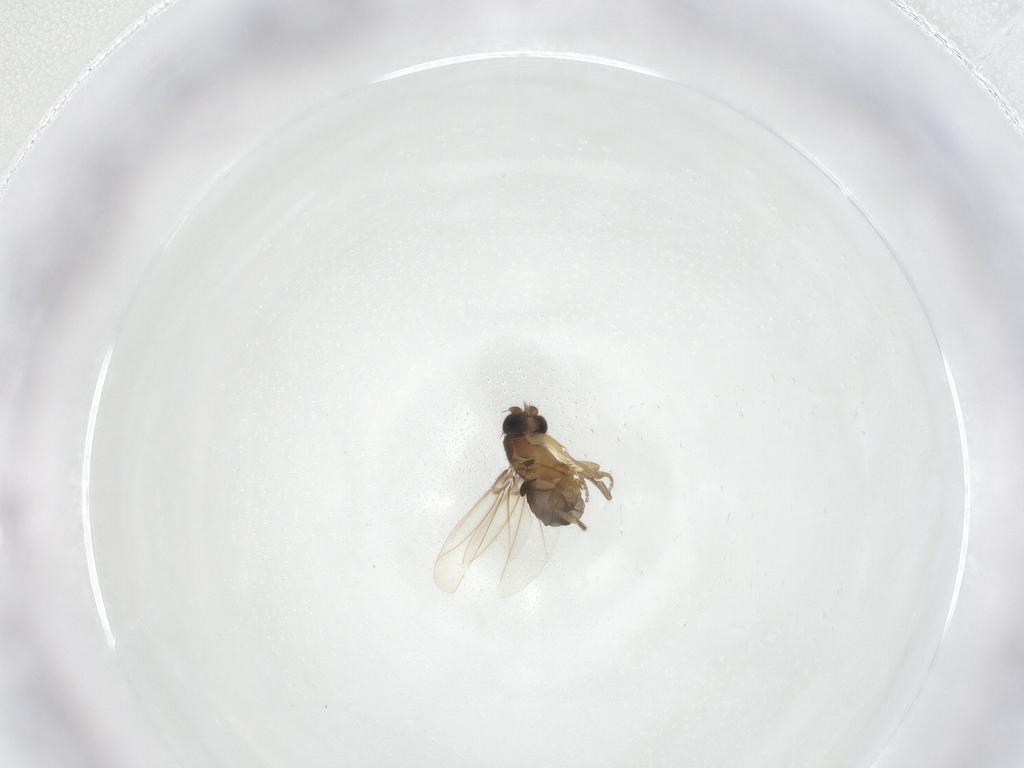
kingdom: Animalia
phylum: Arthropoda
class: Insecta
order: Diptera
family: Phoridae
